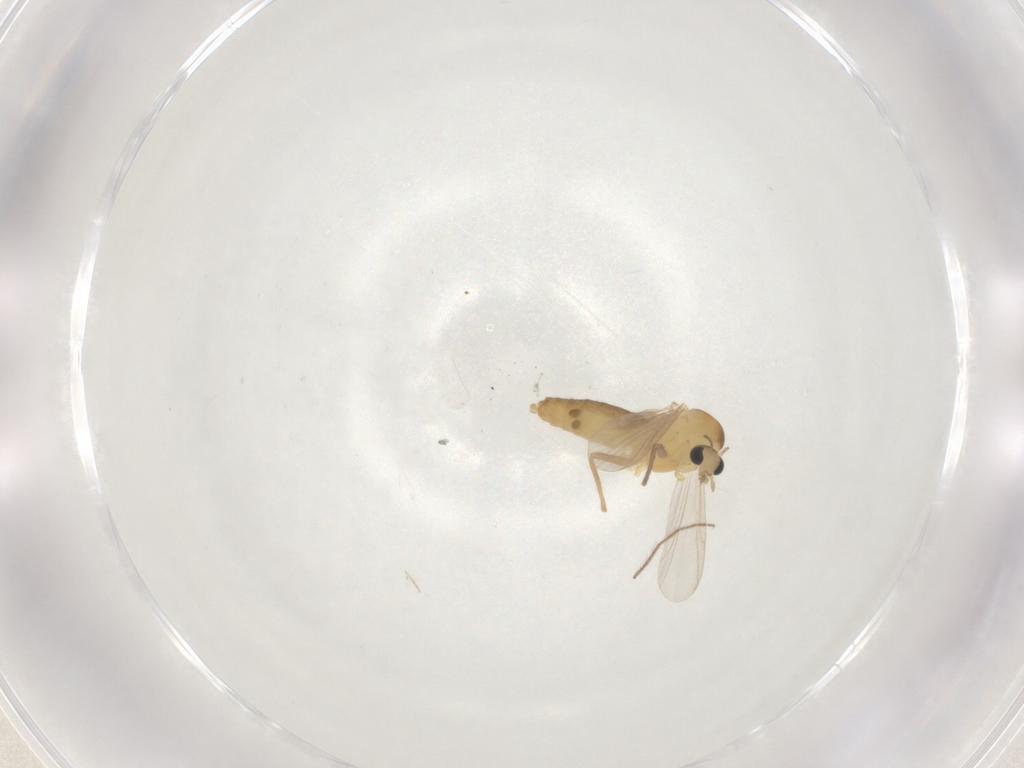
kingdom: Animalia
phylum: Arthropoda
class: Insecta
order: Diptera
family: Chironomidae
